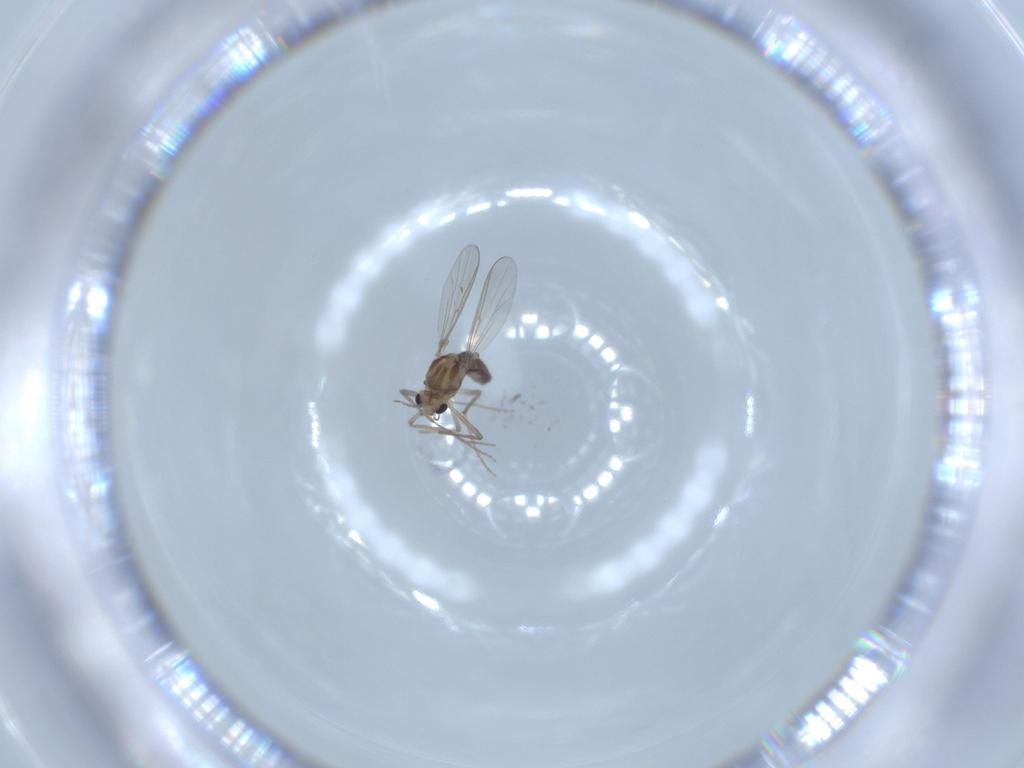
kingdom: Animalia
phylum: Arthropoda
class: Insecta
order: Diptera
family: Chironomidae
